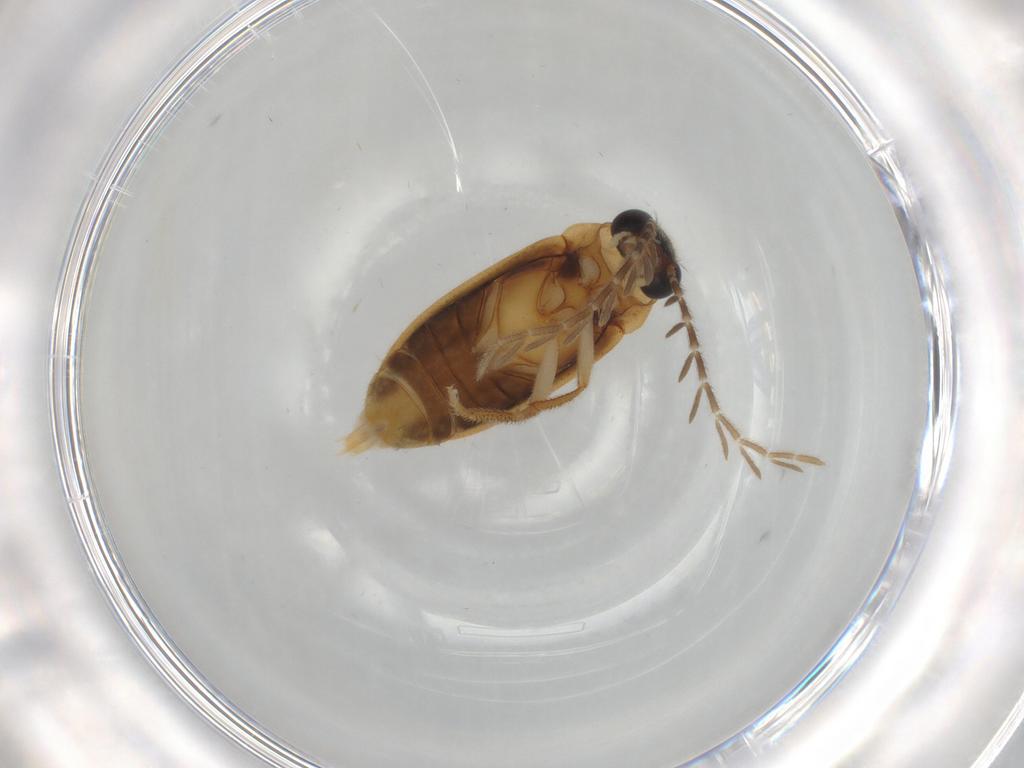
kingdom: Animalia
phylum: Arthropoda
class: Insecta
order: Coleoptera
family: Ptilodactylidae
